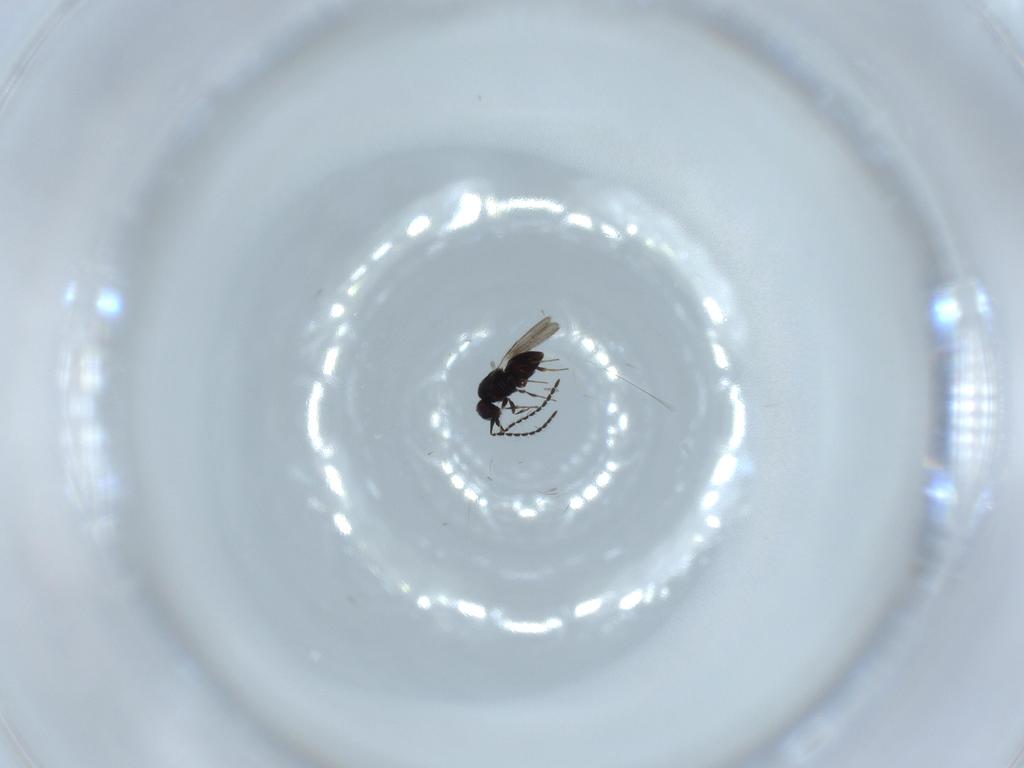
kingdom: Animalia
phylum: Arthropoda
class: Insecta
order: Hymenoptera
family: Ceraphronidae
